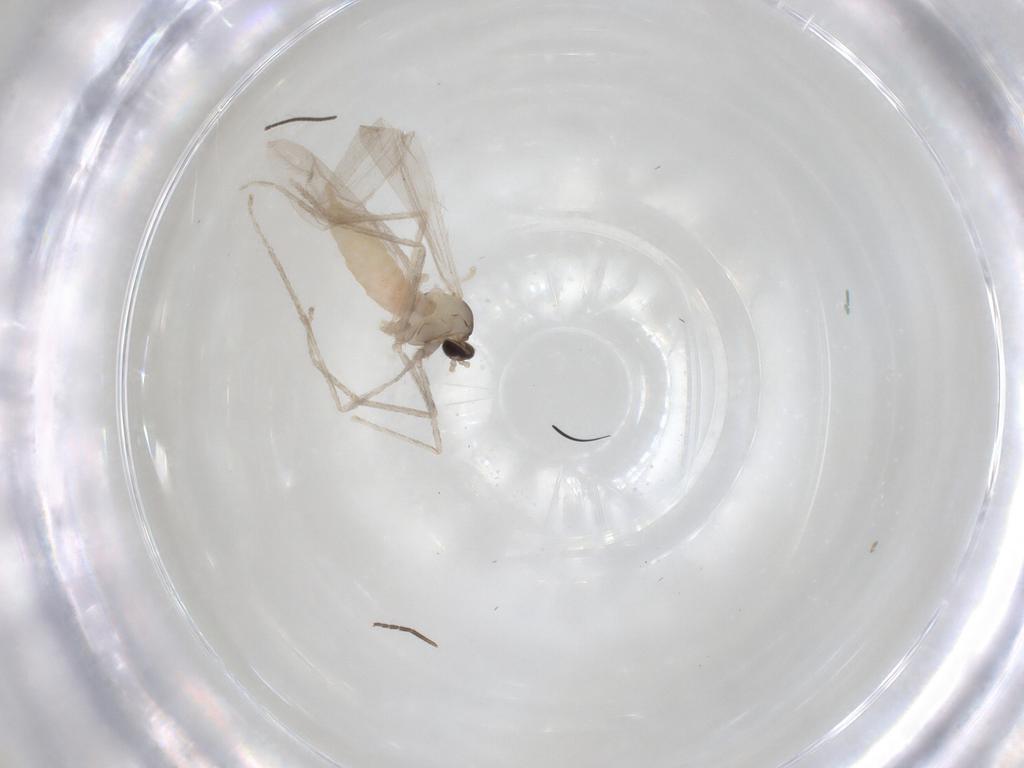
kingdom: Animalia
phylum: Arthropoda
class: Insecta
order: Diptera
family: Cecidomyiidae
